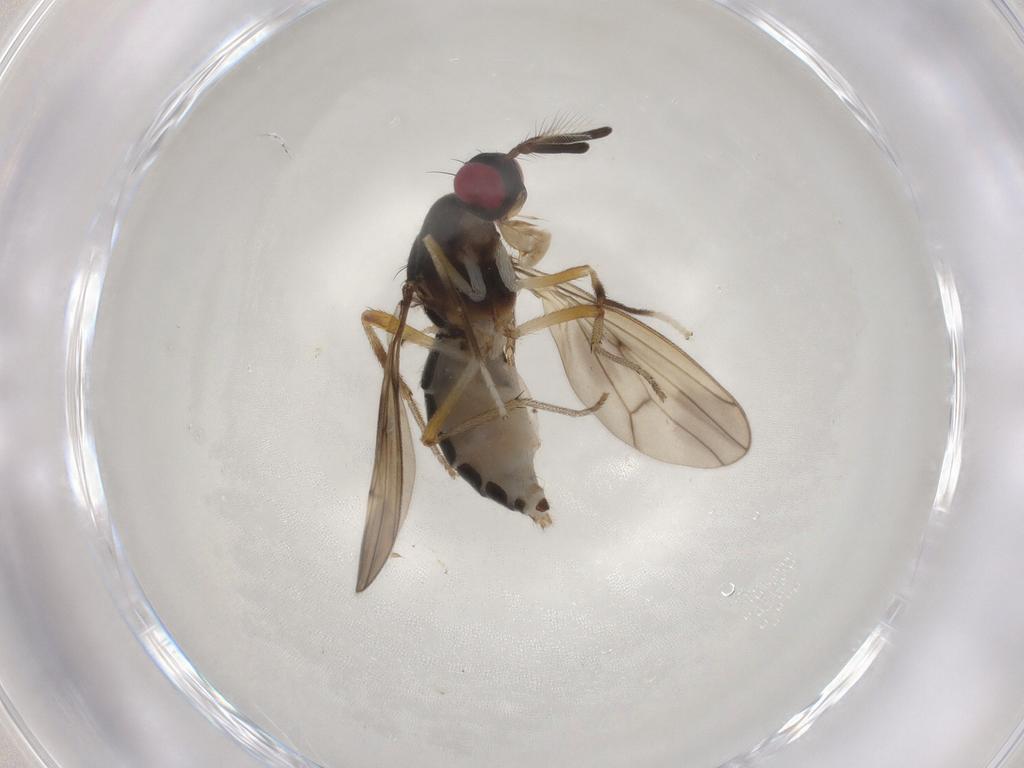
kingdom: Animalia
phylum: Arthropoda
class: Insecta
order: Diptera
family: Lauxaniidae
